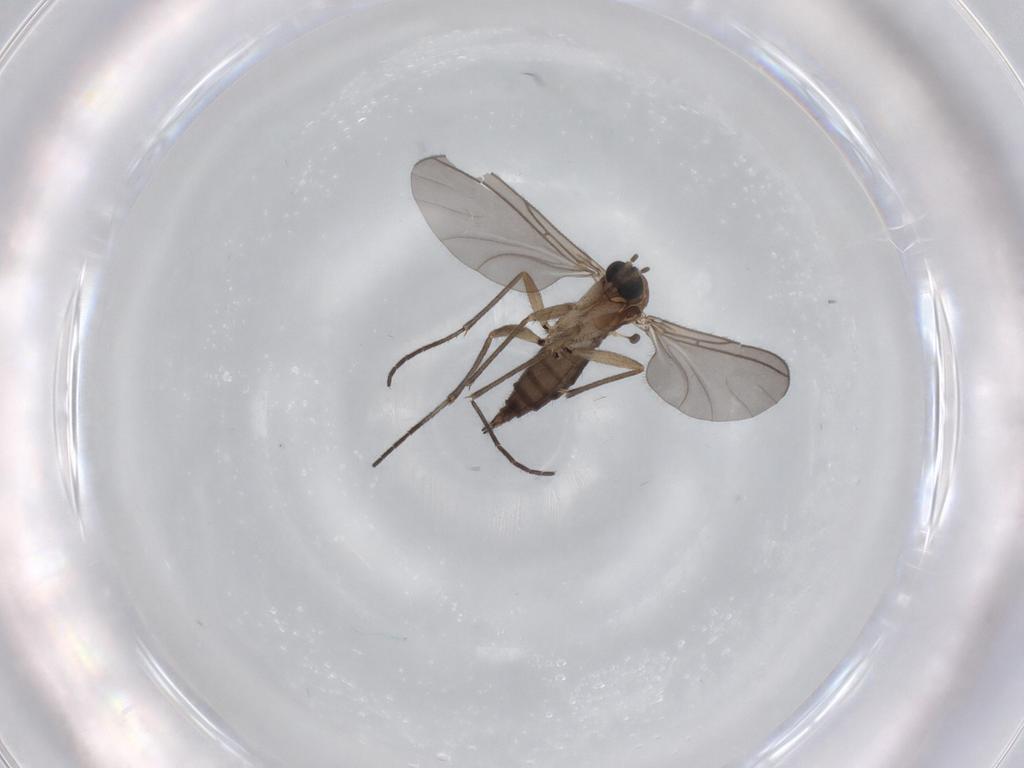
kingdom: Animalia
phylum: Arthropoda
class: Insecta
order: Diptera
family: Sciaridae
